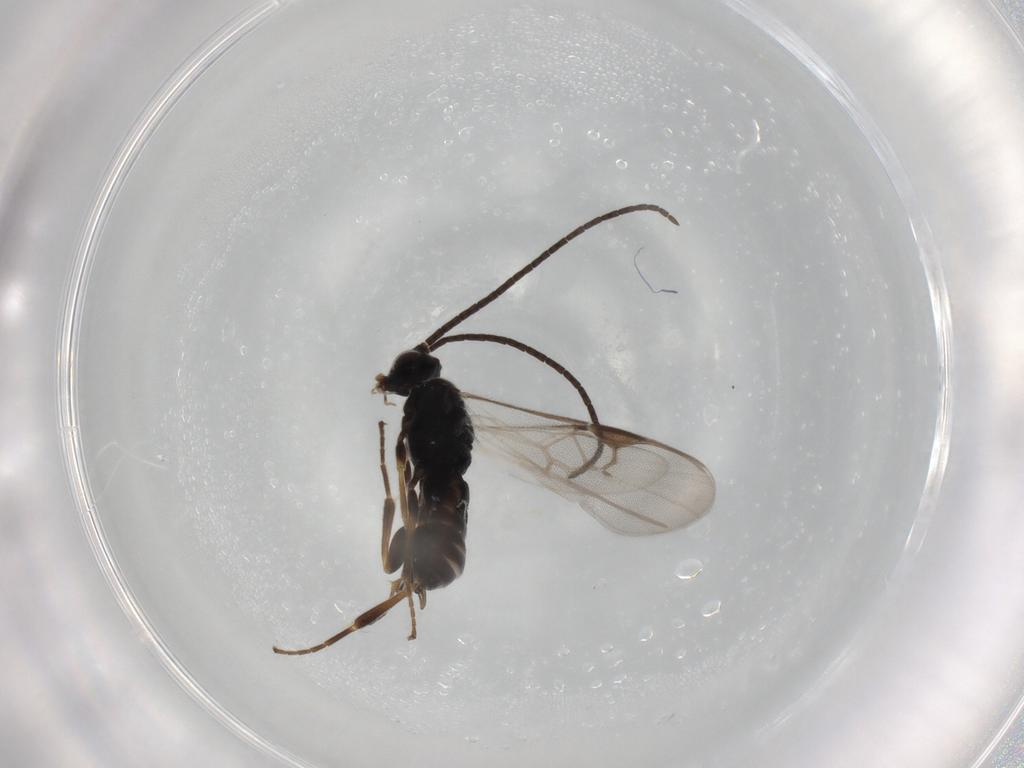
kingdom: Animalia
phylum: Arthropoda
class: Insecta
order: Hymenoptera
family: Braconidae
